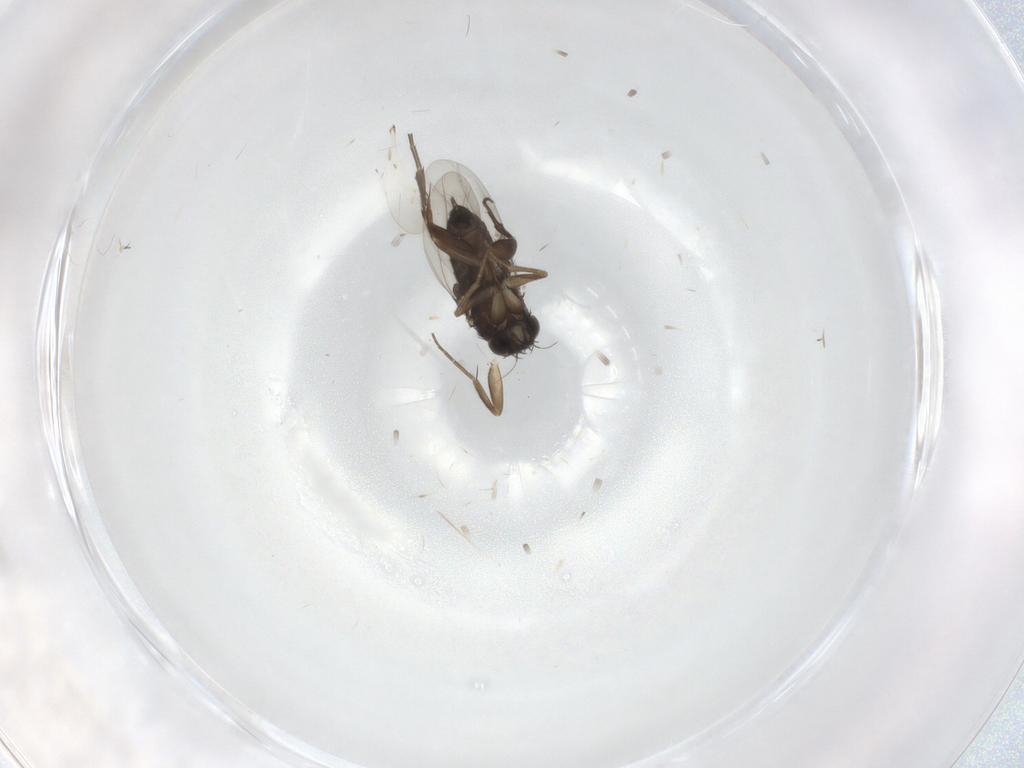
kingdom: Animalia
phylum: Arthropoda
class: Insecta
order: Diptera
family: Phoridae
